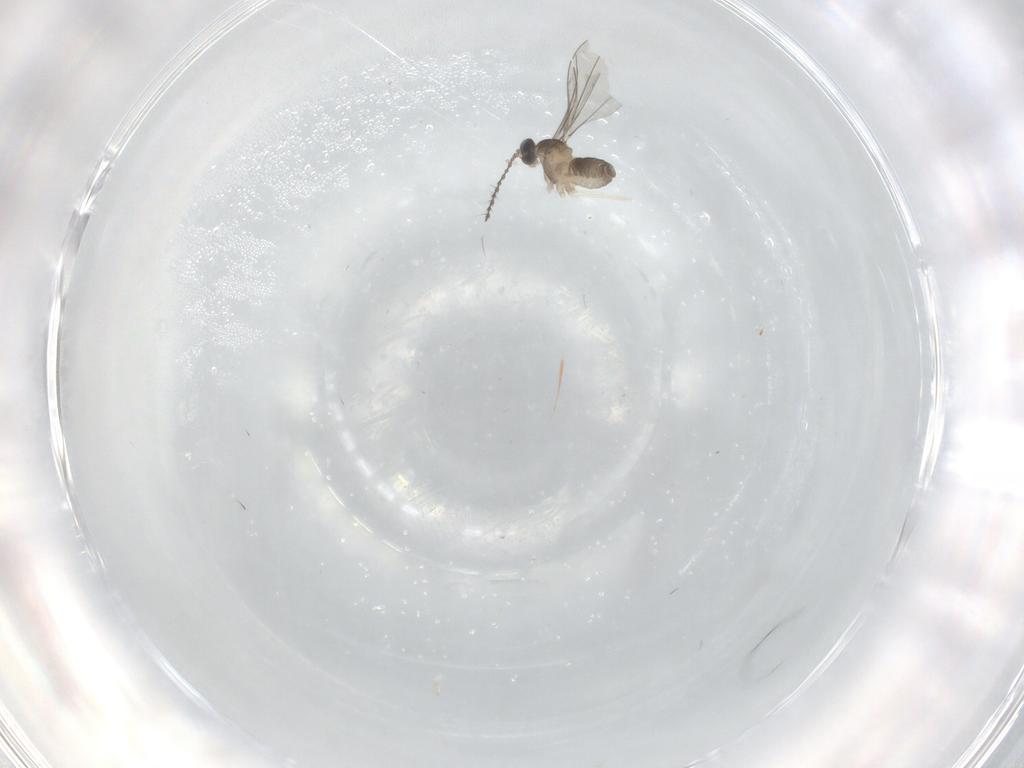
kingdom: Animalia
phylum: Arthropoda
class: Insecta
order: Diptera
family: Cecidomyiidae
